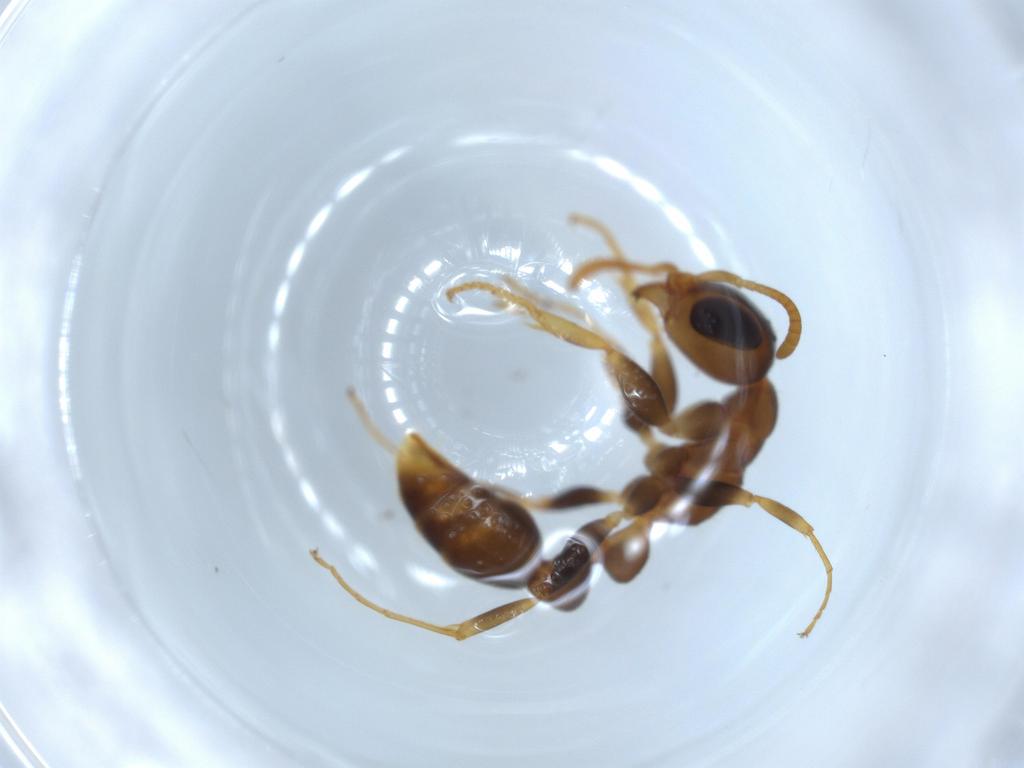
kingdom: Animalia
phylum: Arthropoda
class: Insecta
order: Hymenoptera
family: Formicidae
